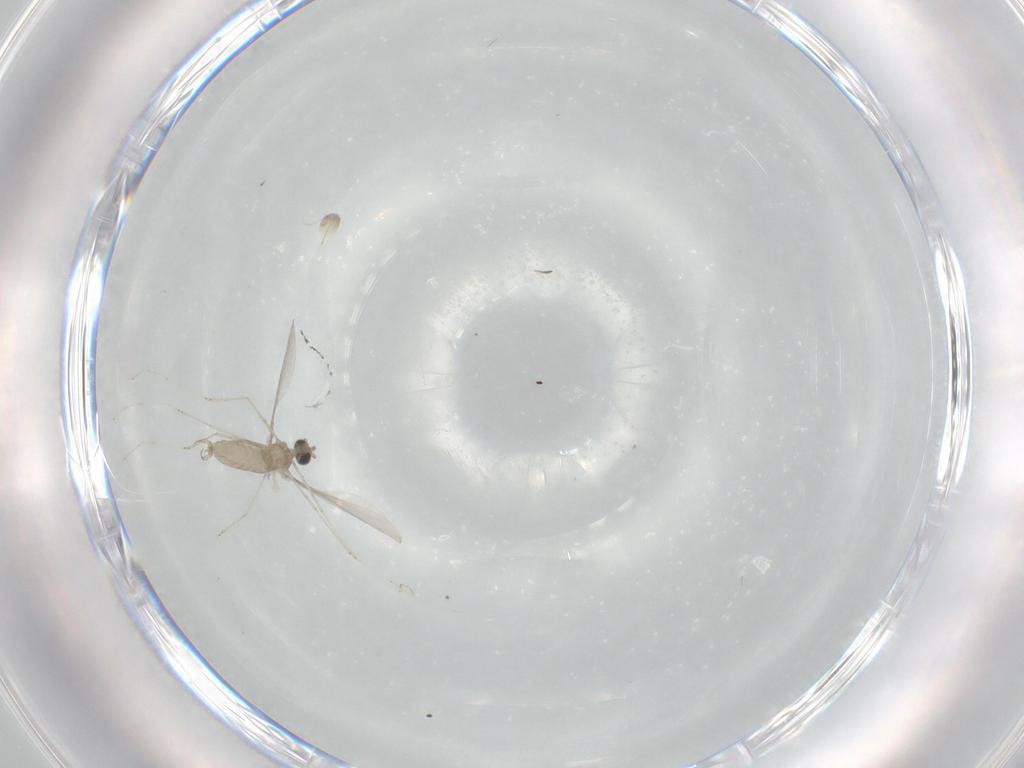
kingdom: Animalia
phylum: Arthropoda
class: Insecta
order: Diptera
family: Cecidomyiidae
